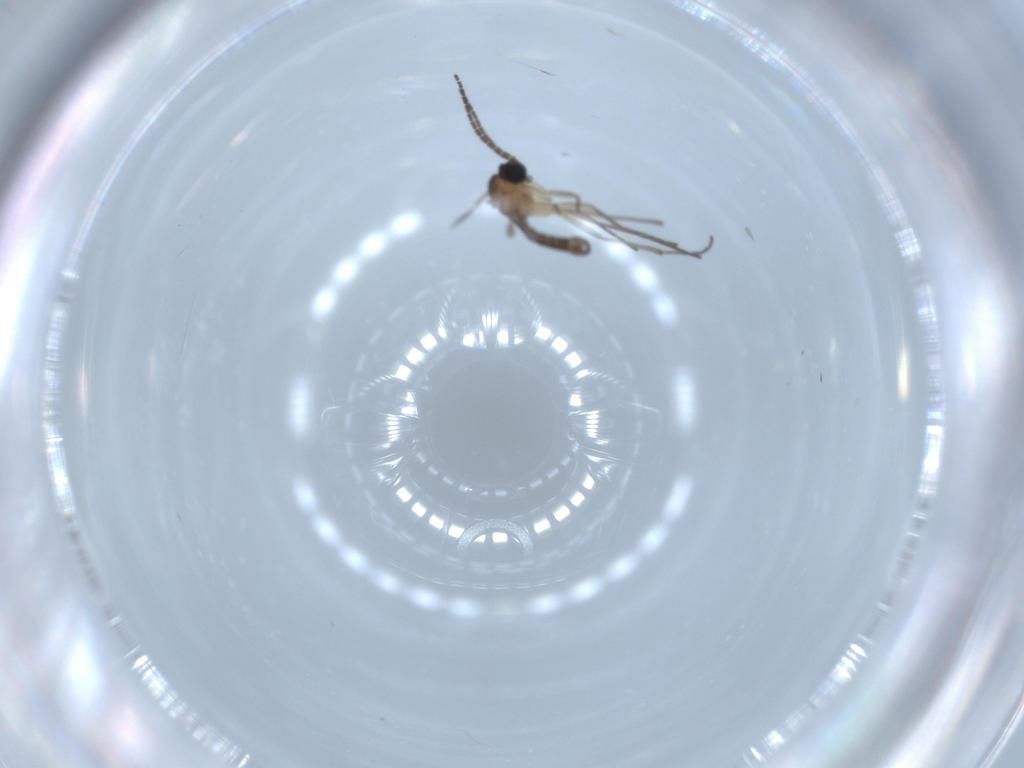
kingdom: Animalia
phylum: Arthropoda
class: Insecta
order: Diptera
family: Sciaridae
